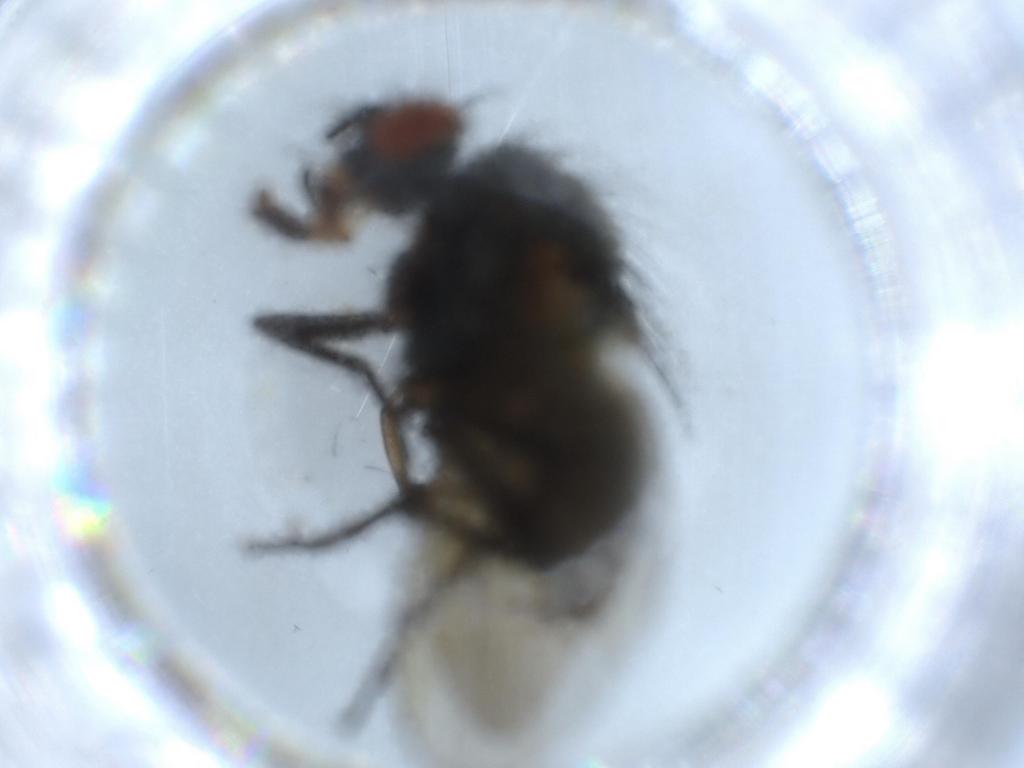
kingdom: Animalia
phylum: Arthropoda
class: Insecta
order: Diptera
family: Anthomyiidae
